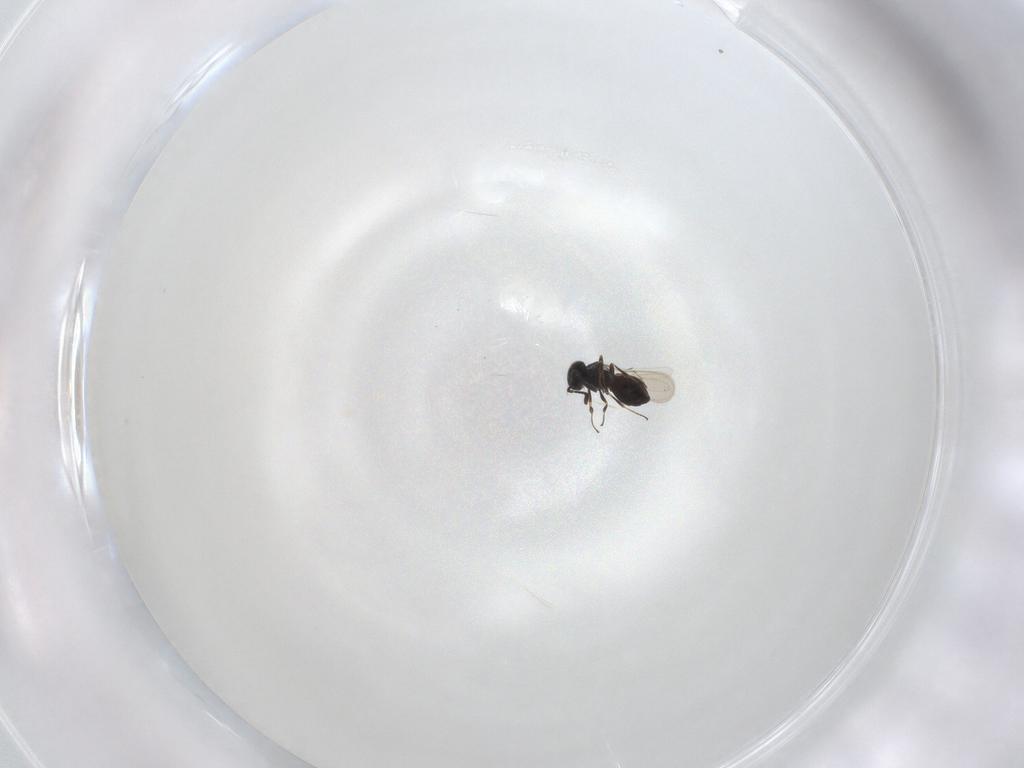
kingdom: Animalia
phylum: Arthropoda
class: Insecta
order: Hymenoptera
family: Scelionidae
